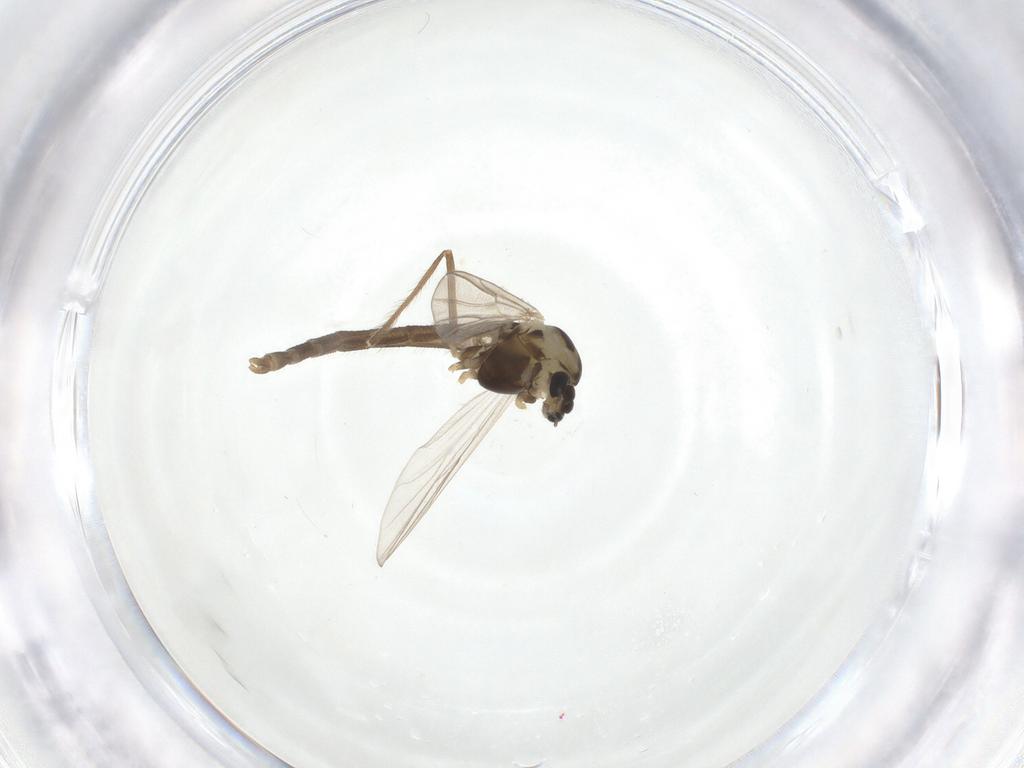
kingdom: Animalia
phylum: Arthropoda
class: Insecta
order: Diptera
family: Chironomidae
